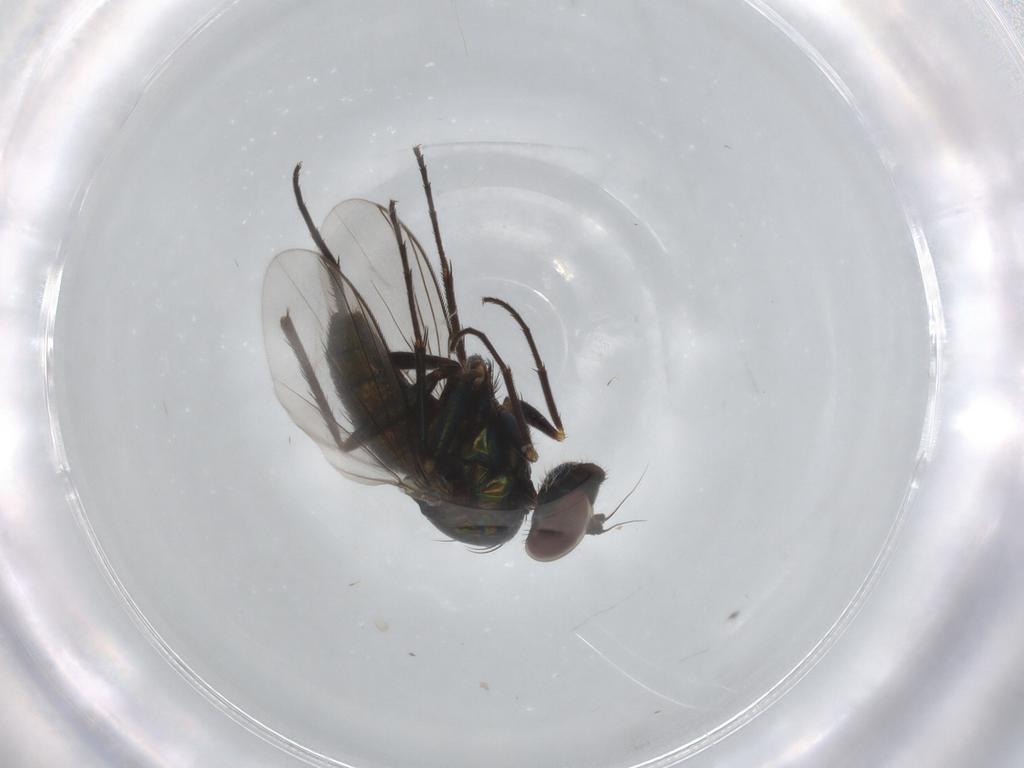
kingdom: Animalia
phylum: Arthropoda
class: Insecta
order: Diptera
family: Dolichopodidae
